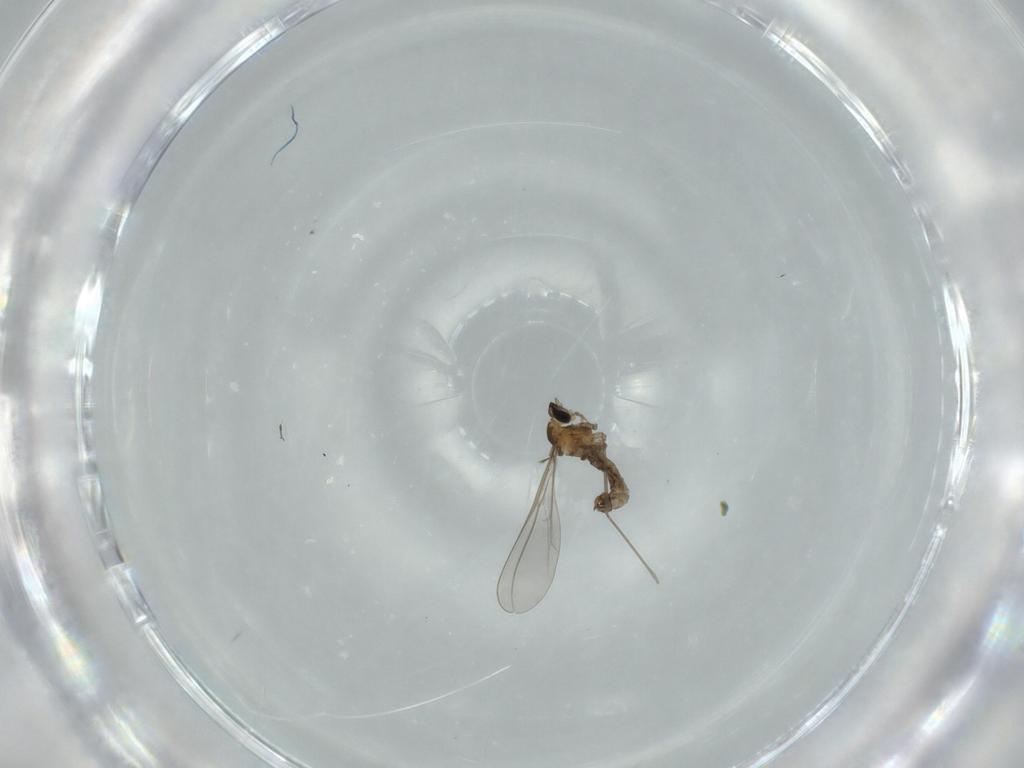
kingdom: Animalia
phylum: Arthropoda
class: Insecta
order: Diptera
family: Cecidomyiidae
